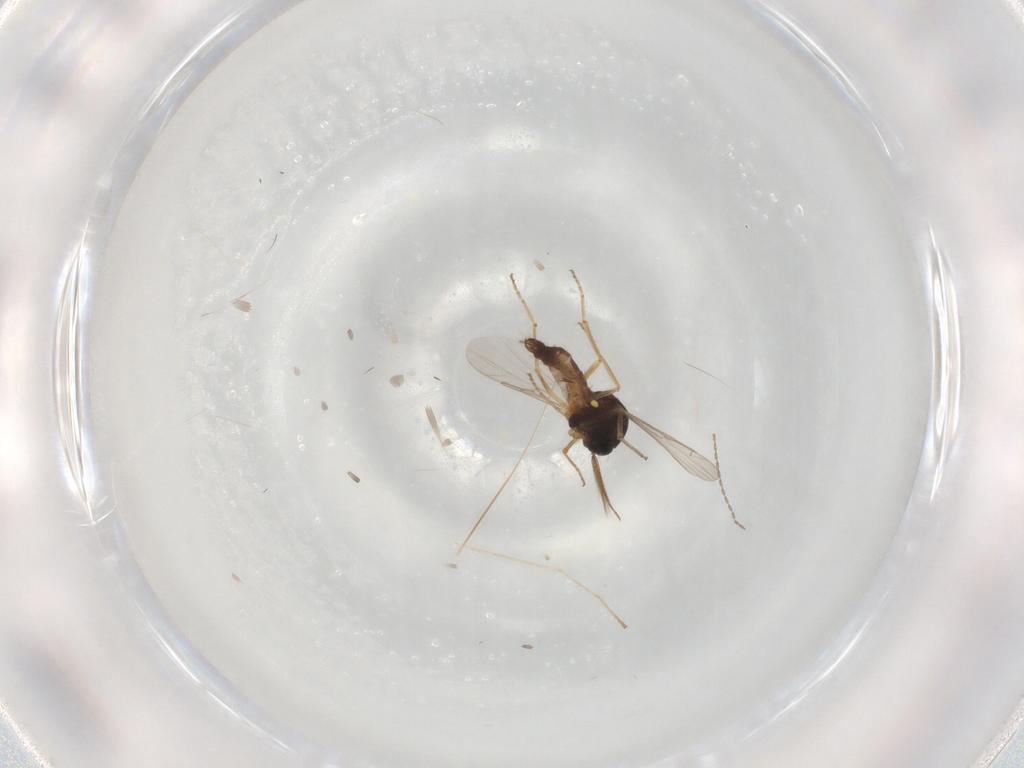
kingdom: Animalia
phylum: Arthropoda
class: Insecta
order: Diptera
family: Ceratopogonidae
